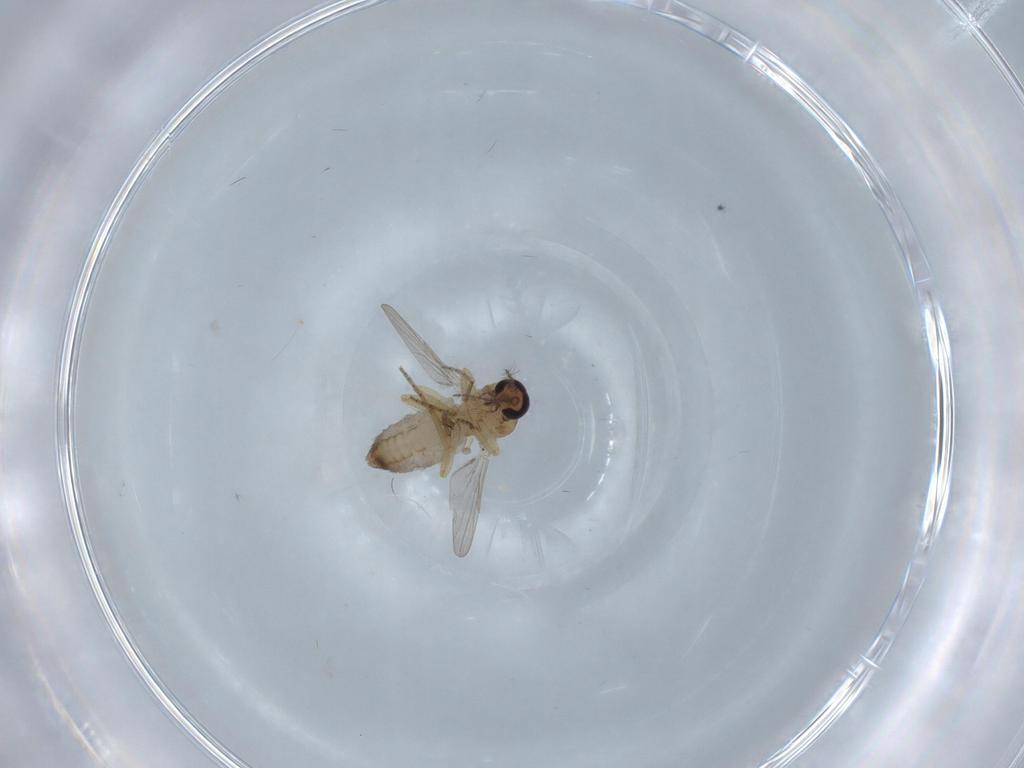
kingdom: Animalia
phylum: Arthropoda
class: Insecta
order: Diptera
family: Ceratopogonidae
